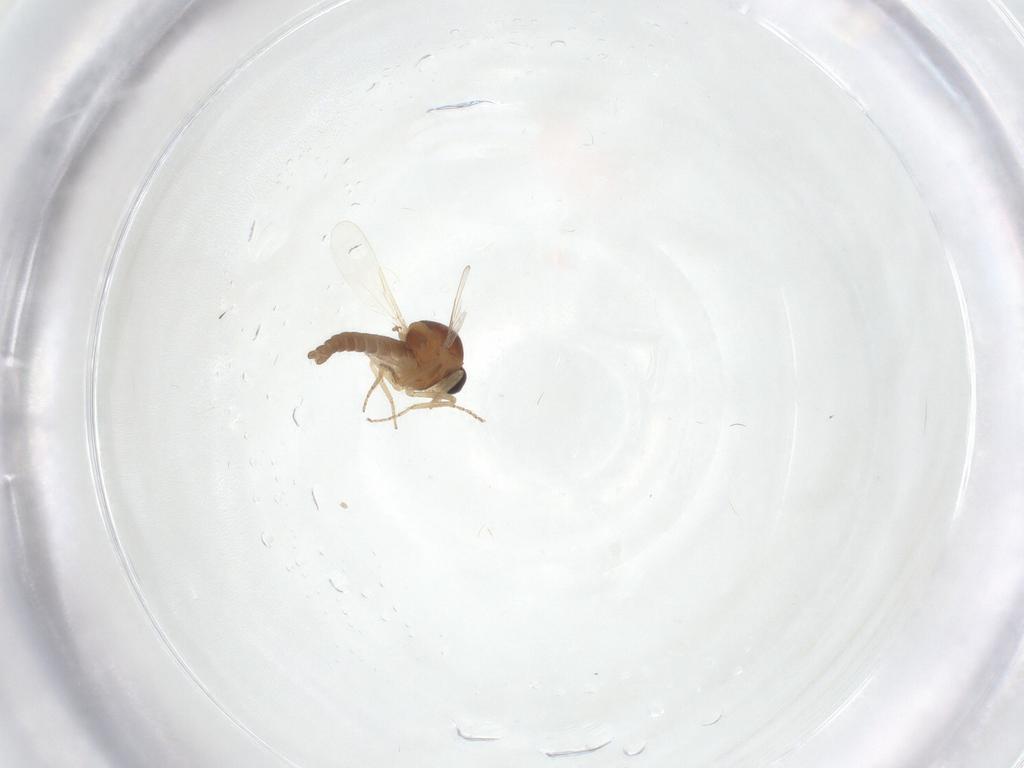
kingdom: Animalia
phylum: Arthropoda
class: Insecta
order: Diptera
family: Ceratopogonidae
